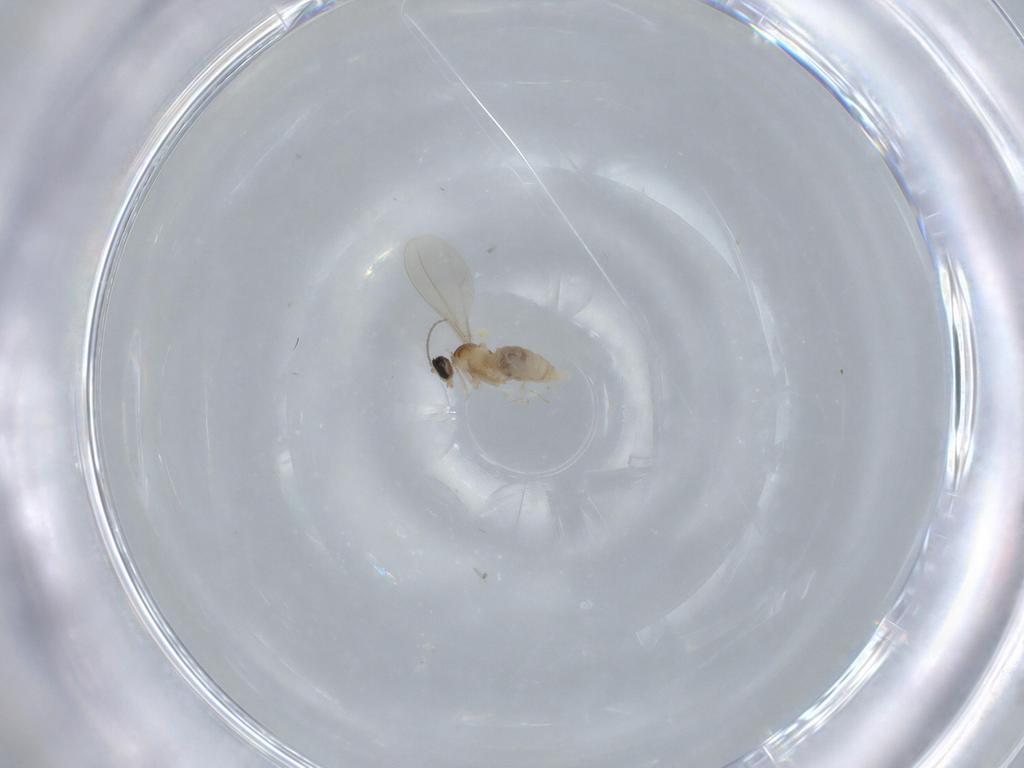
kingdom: Animalia
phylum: Arthropoda
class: Insecta
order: Diptera
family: Cecidomyiidae
